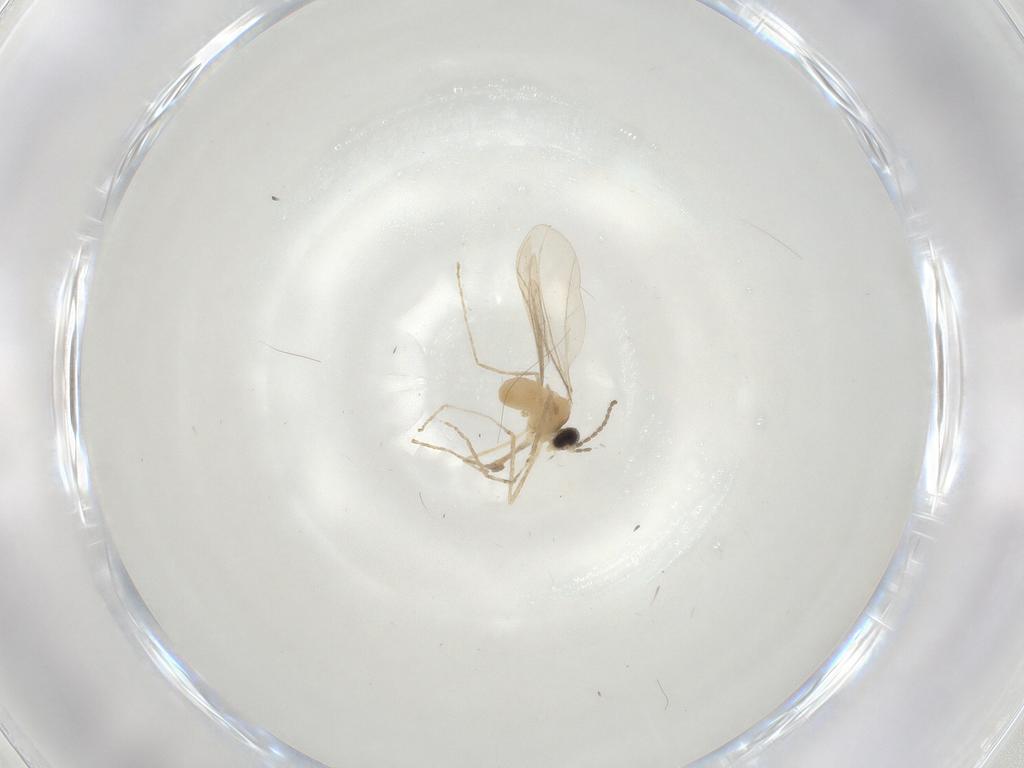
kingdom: Animalia
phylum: Arthropoda
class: Insecta
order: Diptera
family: Cecidomyiidae
